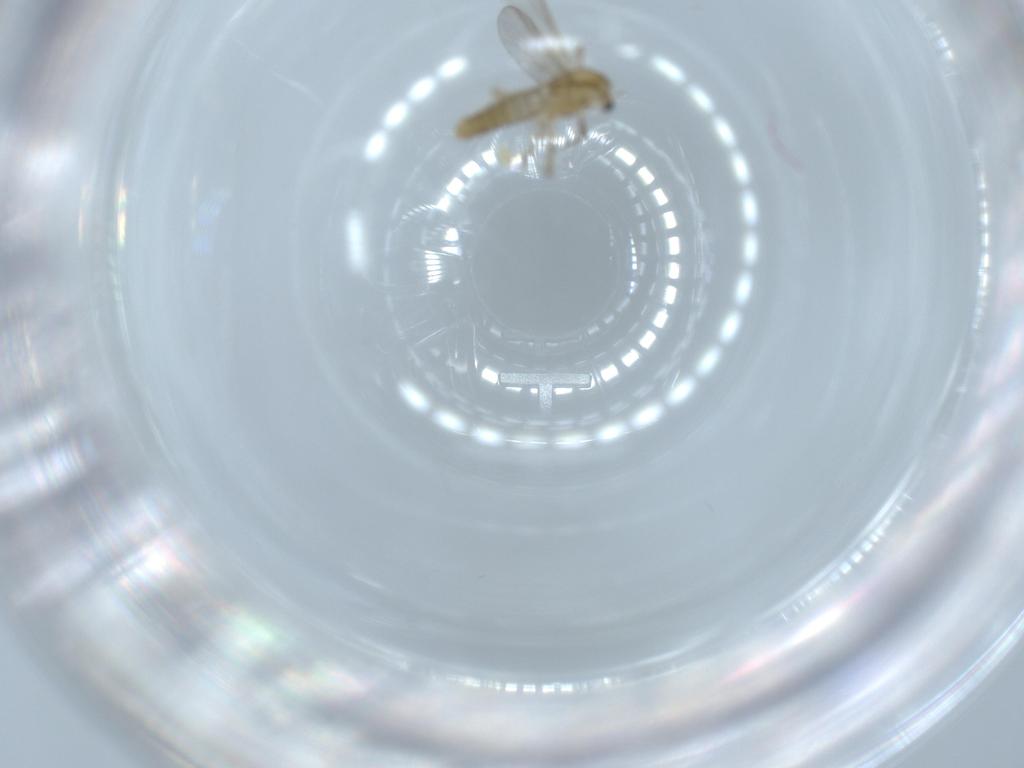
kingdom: Animalia
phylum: Arthropoda
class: Insecta
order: Diptera
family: Chironomidae
